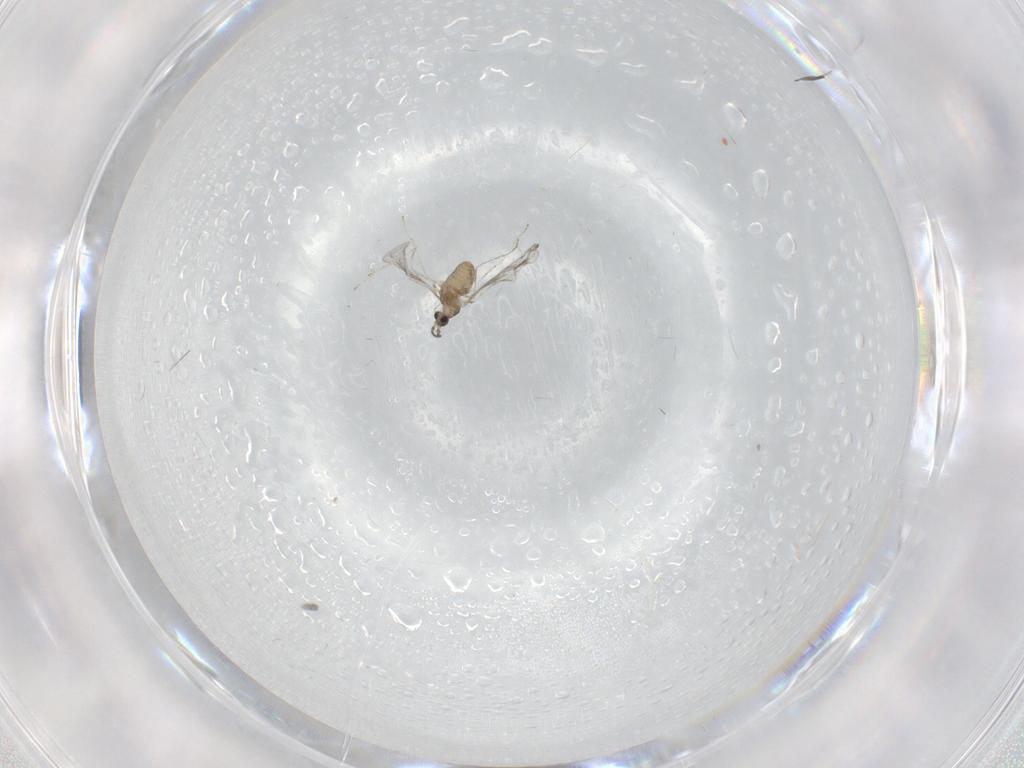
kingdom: Animalia
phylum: Arthropoda
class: Insecta
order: Diptera
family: Cecidomyiidae
